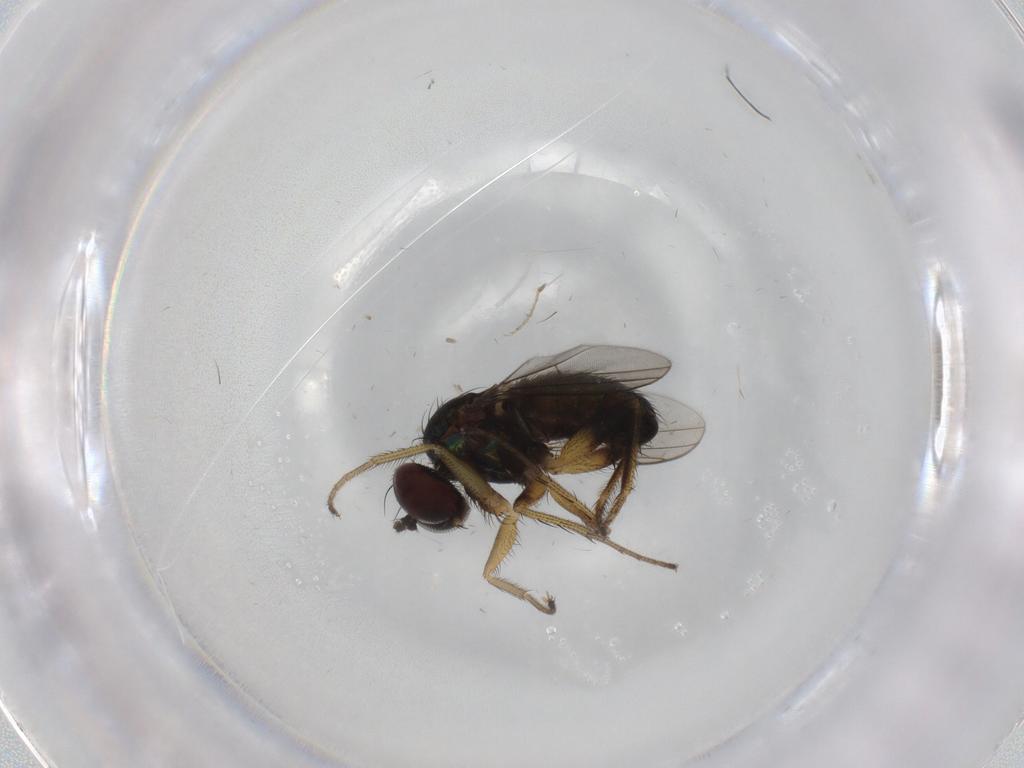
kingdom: Animalia
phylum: Arthropoda
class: Insecta
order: Diptera
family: Dolichopodidae
